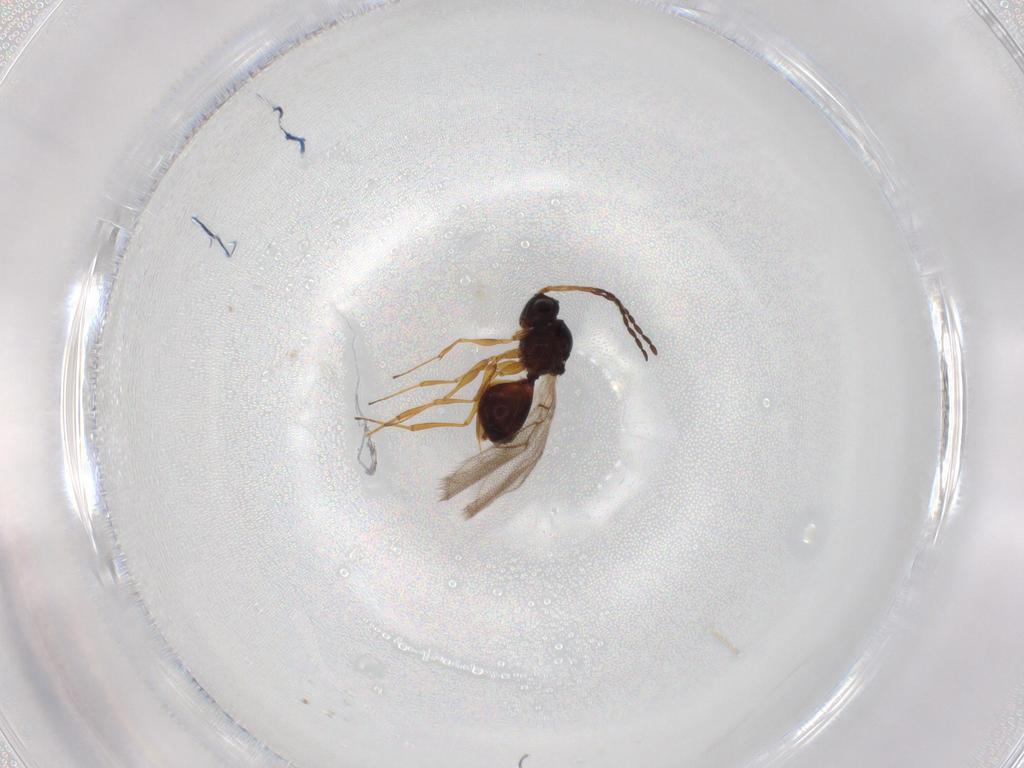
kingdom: Animalia
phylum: Arthropoda
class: Insecta
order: Hymenoptera
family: Figitidae
